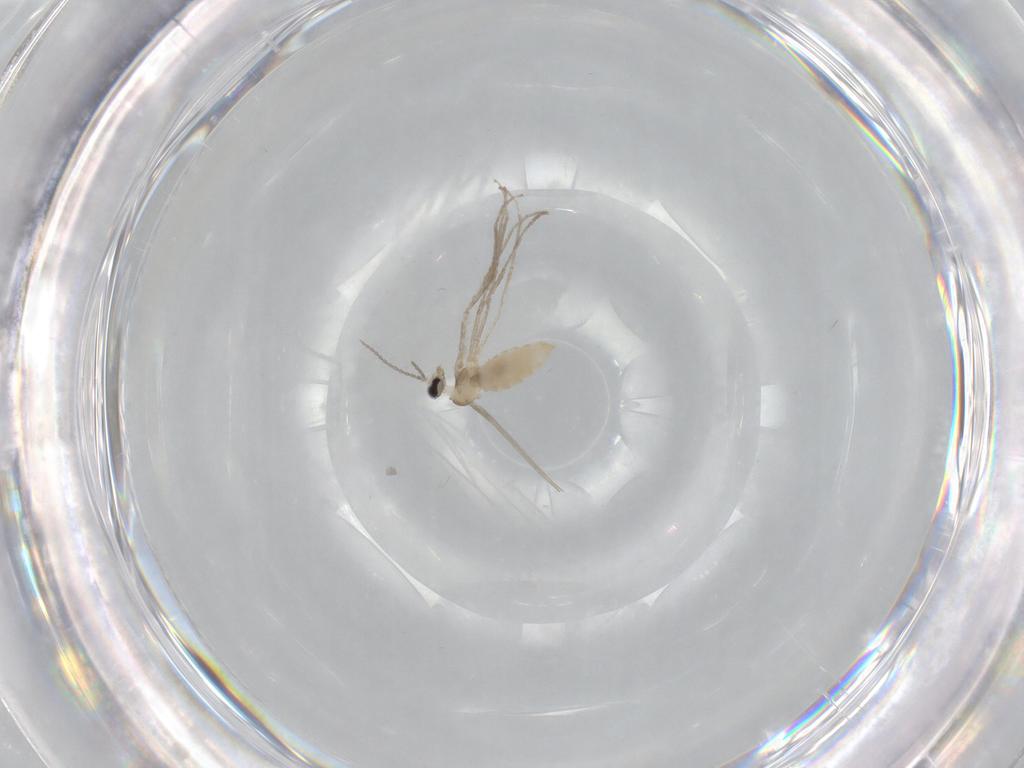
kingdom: Animalia
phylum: Arthropoda
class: Insecta
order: Diptera
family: Cecidomyiidae
